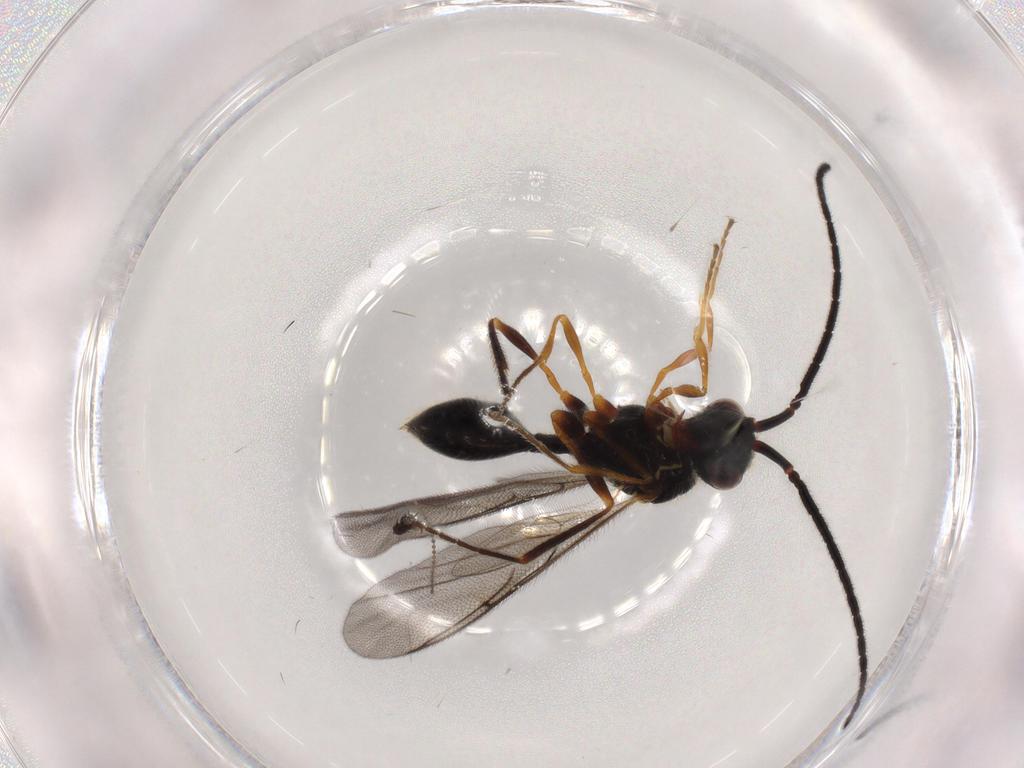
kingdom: Animalia
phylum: Arthropoda
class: Insecta
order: Hymenoptera
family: Diapriidae
